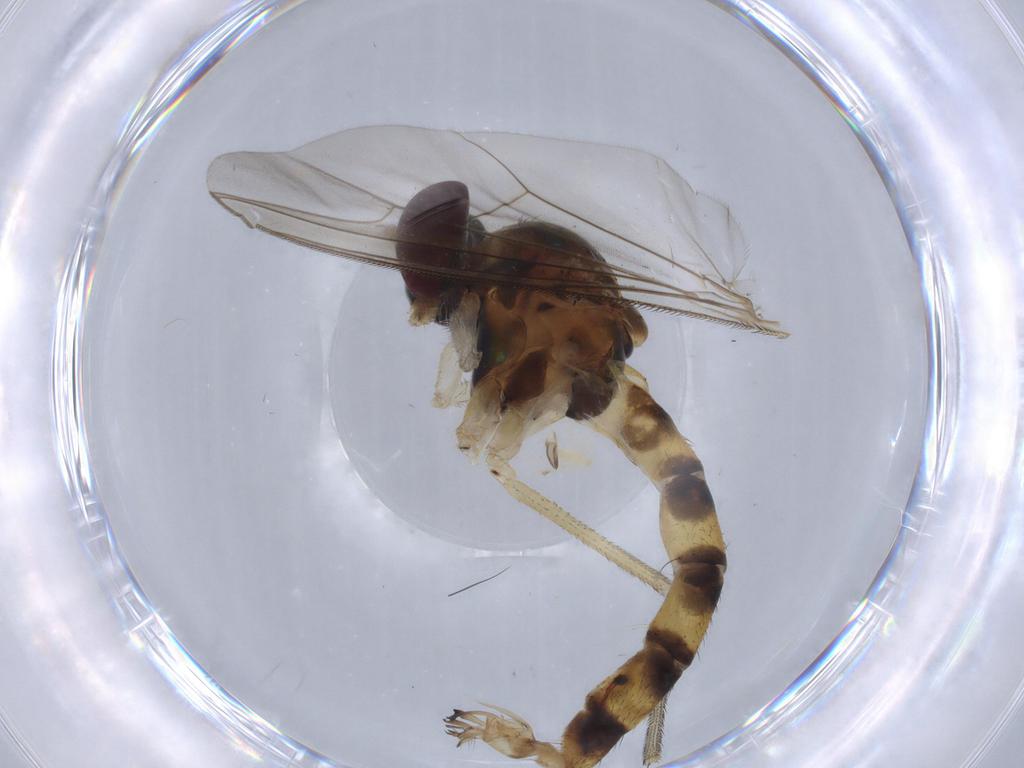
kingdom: Animalia
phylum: Arthropoda
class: Insecta
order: Diptera
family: Dolichopodidae
